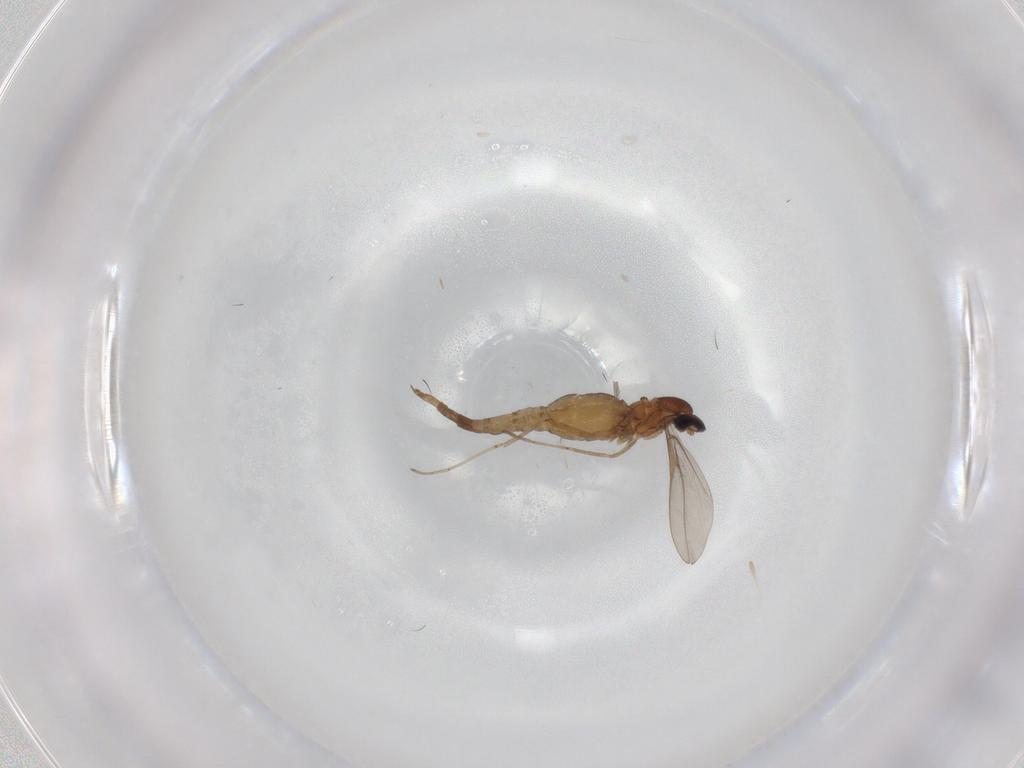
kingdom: Animalia
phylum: Arthropoda
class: Insecta
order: Diptera
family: Cecidomyiidae
